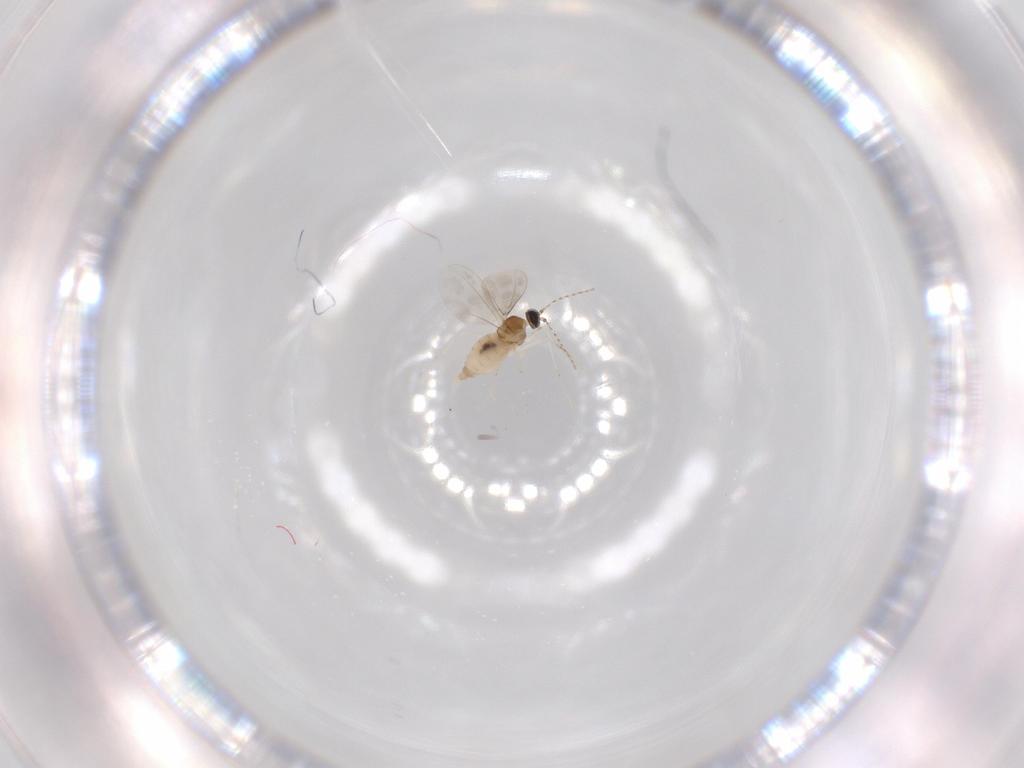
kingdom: Animalia
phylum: Arthropoda
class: Insecta
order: Diptera
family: Cecidomyiidae
